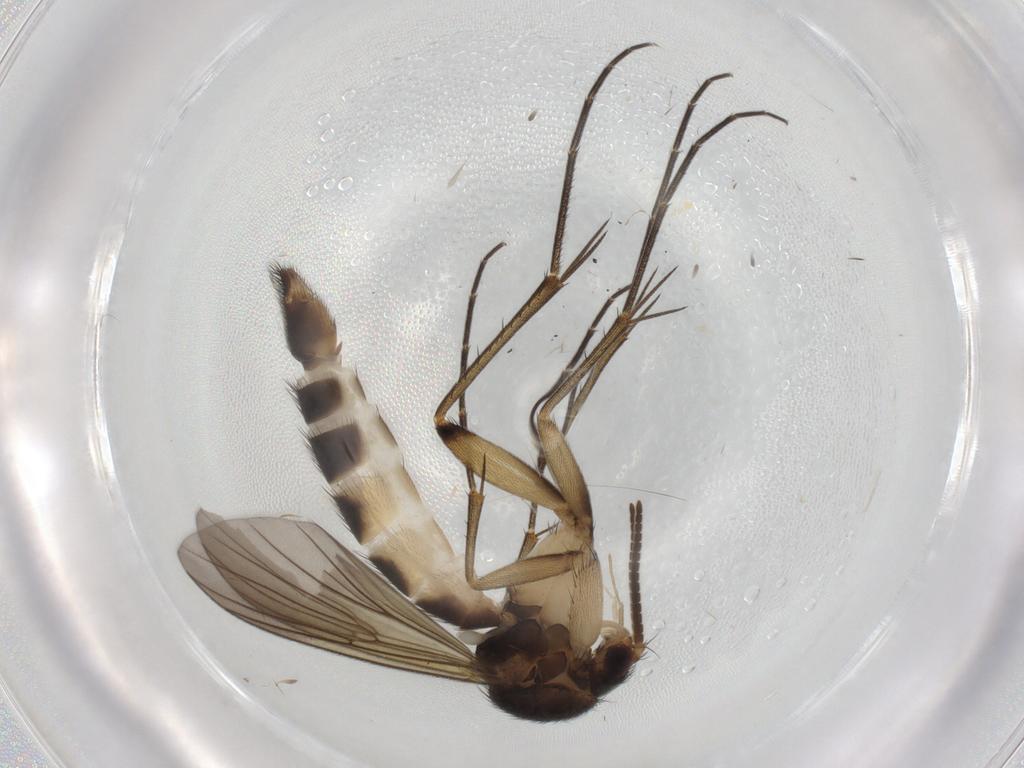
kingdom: Animalia
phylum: Arthropoda
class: Insecta
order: Diptera
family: Mycetophilidae
